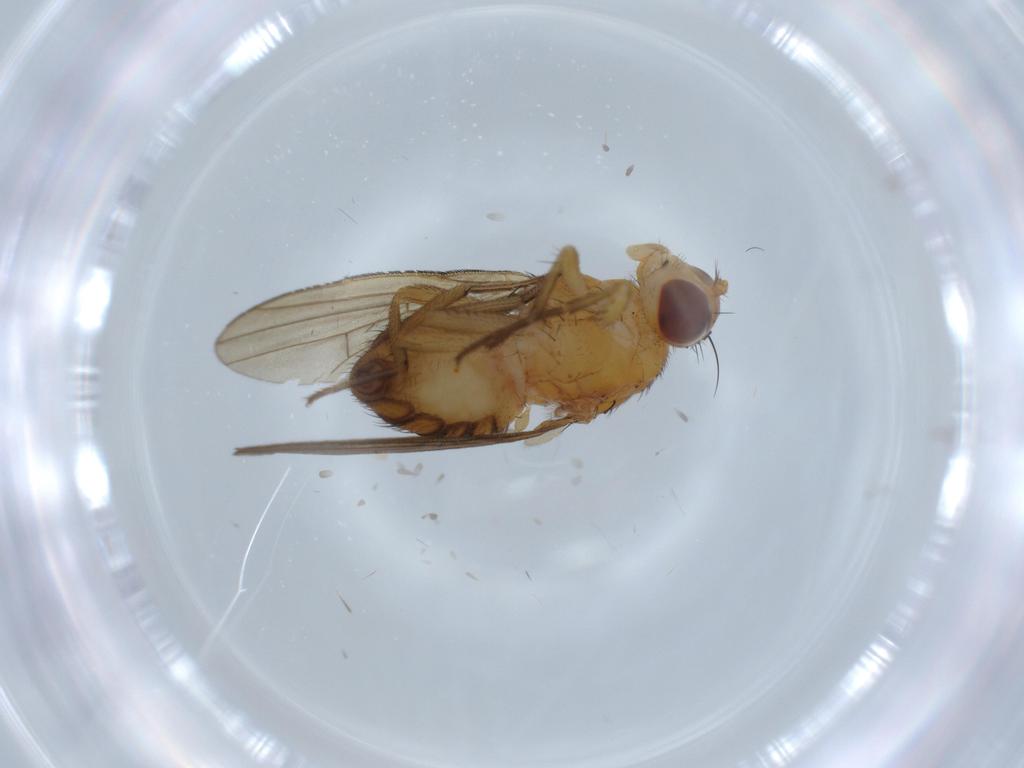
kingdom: Animalia
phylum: Arthropoda
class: Insecta
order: Diptera
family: Lauxaniidae
